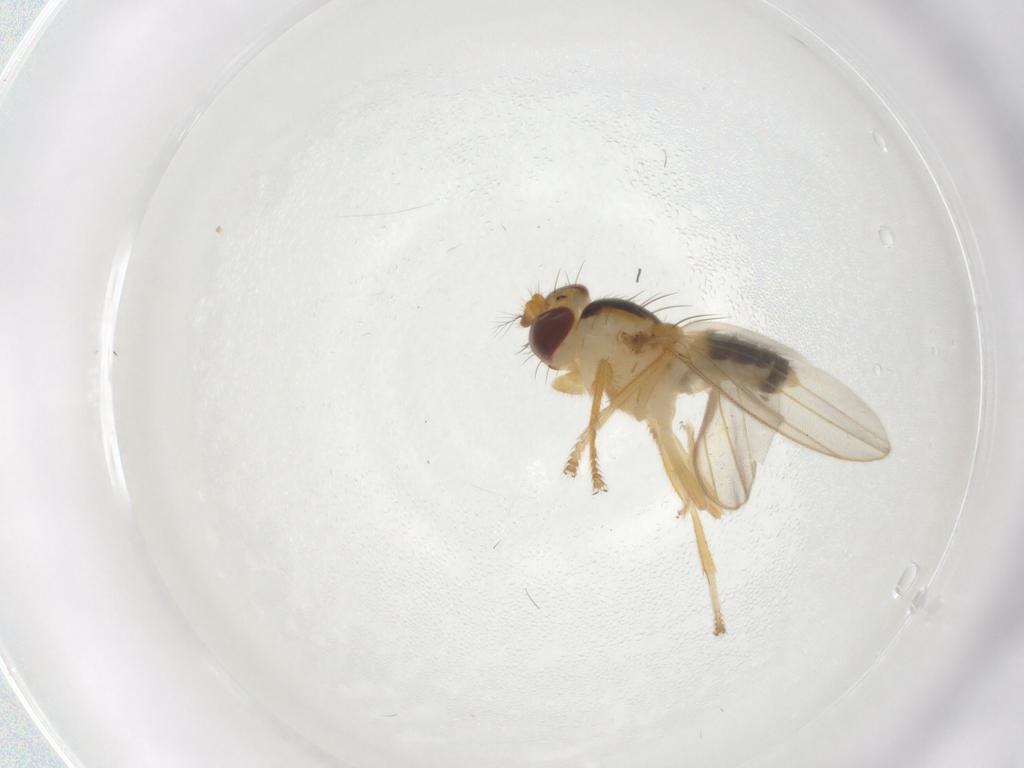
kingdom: Animalia
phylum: Arthropoda
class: Insecta
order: Diptera
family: Periscelididae
